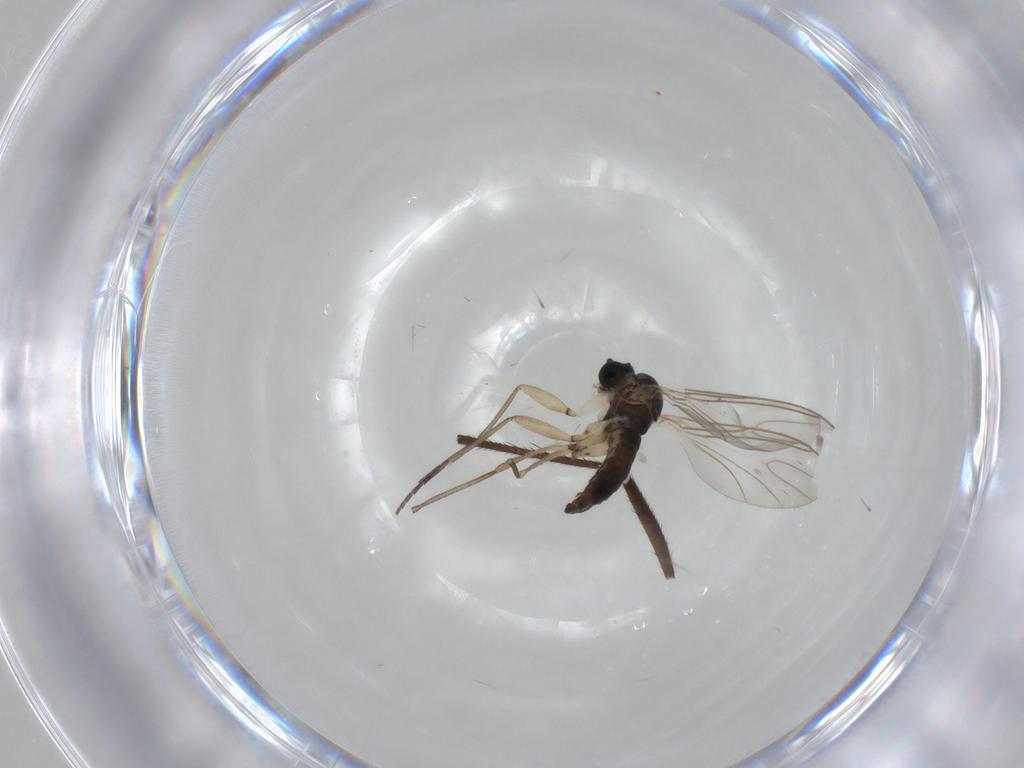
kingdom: Animalia
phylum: Arthropoda
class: Insecta
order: Diptera
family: Empididae
